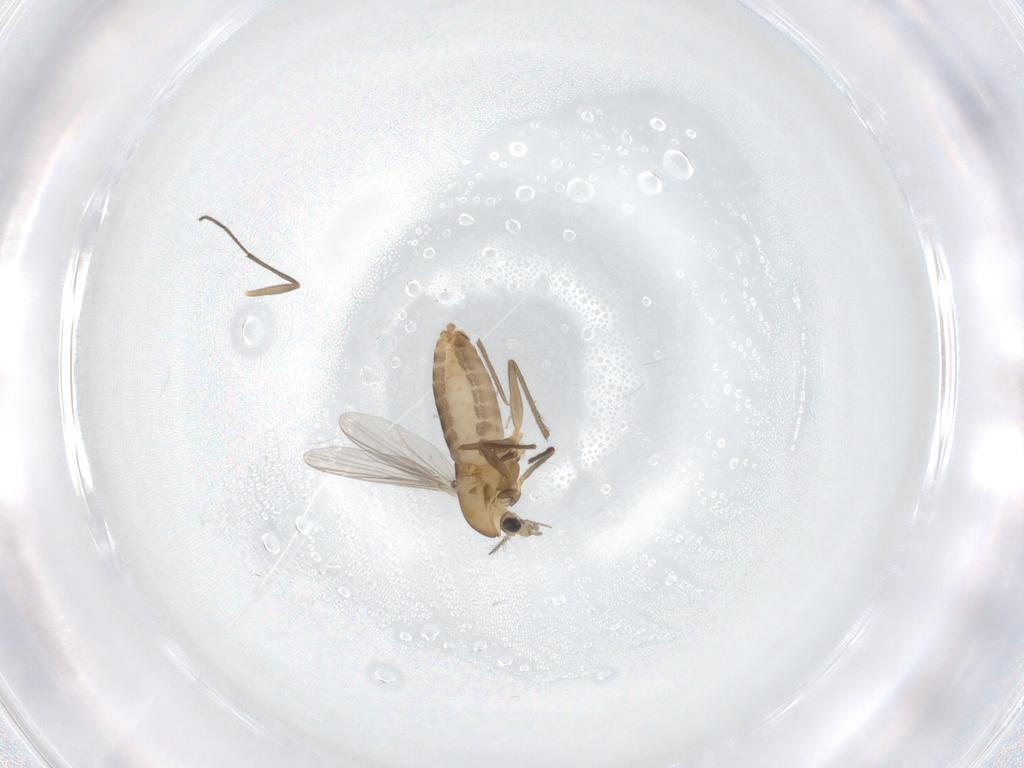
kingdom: Animalia
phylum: Arthropoda
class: Insecta
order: Diptera
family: Chironomidae
